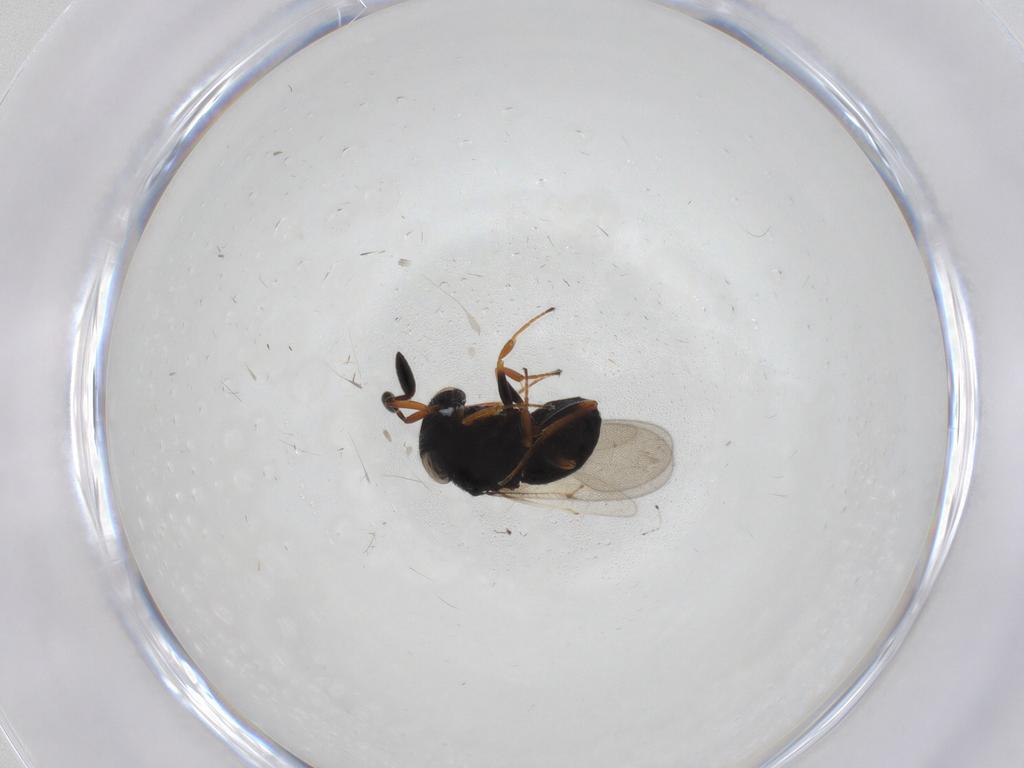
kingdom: Animalia
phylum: Arthropoda
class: Insecta
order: Hymenoptera
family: Scelionidae
